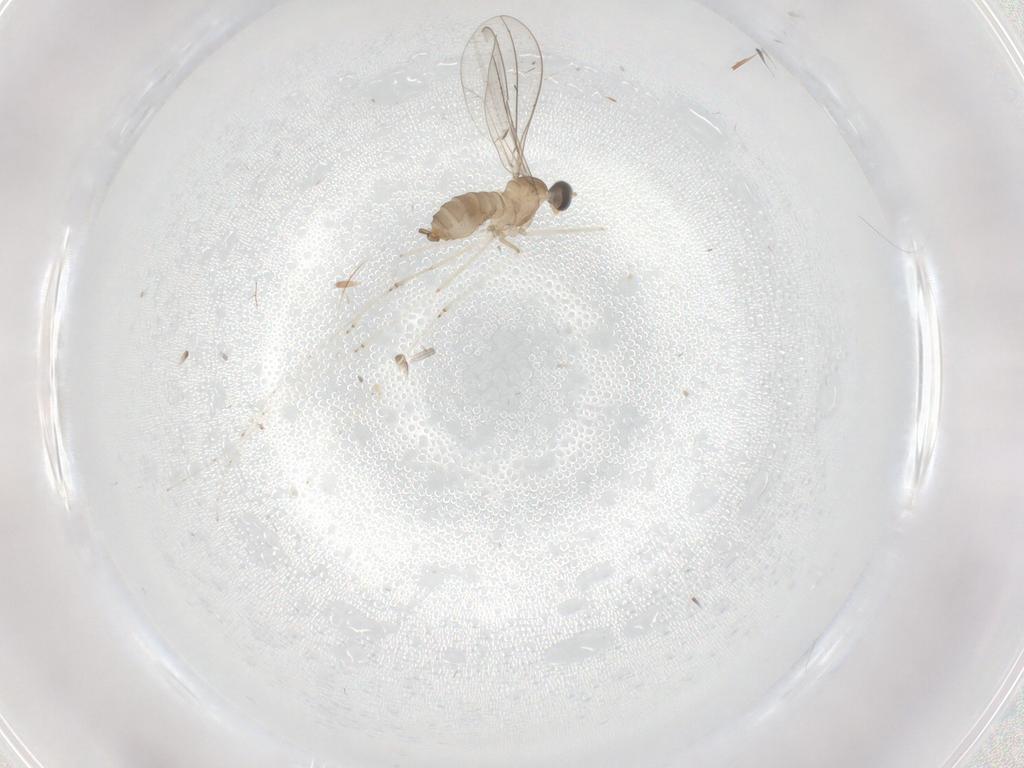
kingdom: Animalia
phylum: Arthropoda
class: Insecta
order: Diptera
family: Cecidomyiidae
